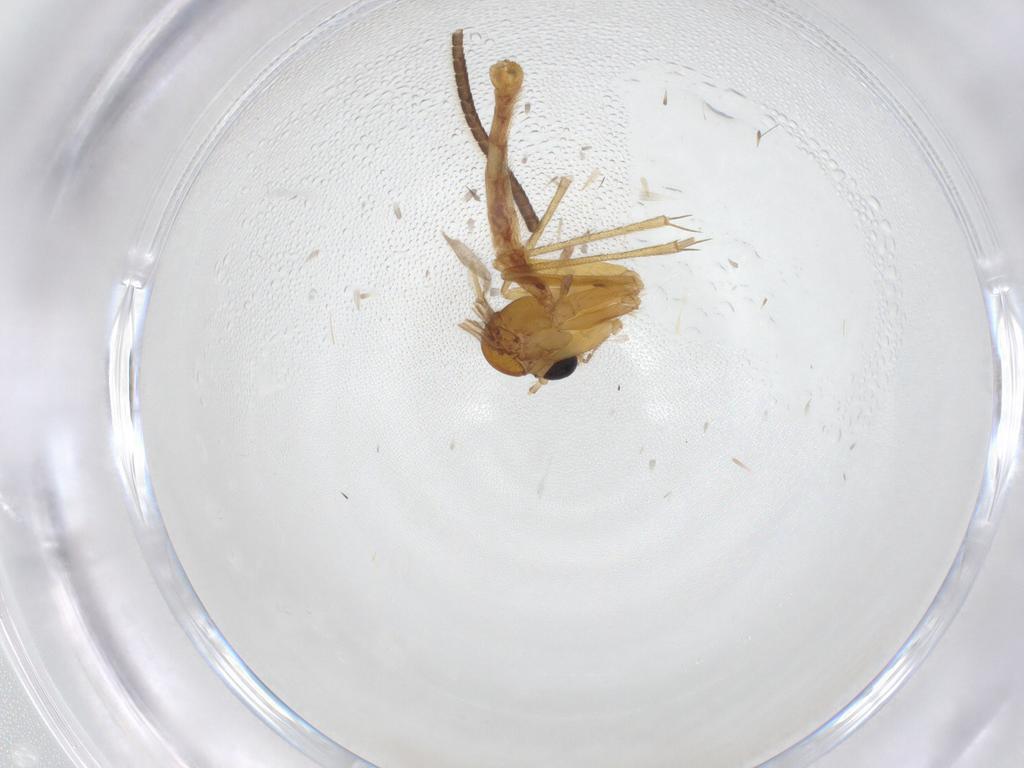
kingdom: Animalia
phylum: Arthropoda
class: Insecta
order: Diptera
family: Mycetophilidae
